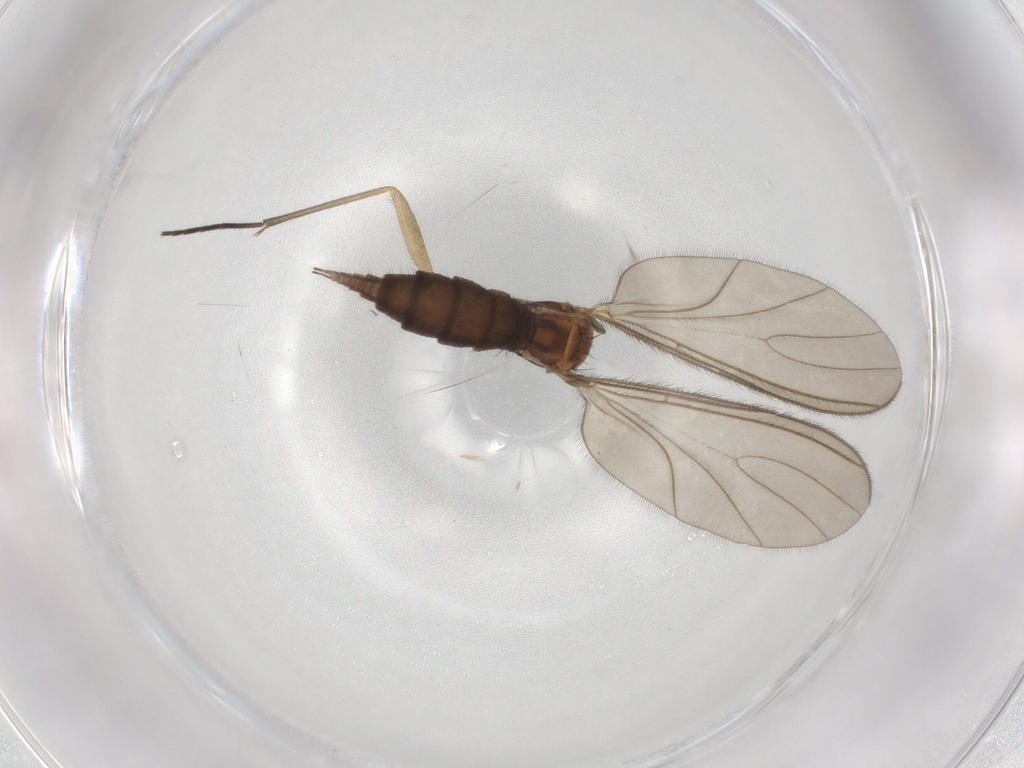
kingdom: Animalia
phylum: Arthropoda
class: Insecta
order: Diptera
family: Sciaridae
